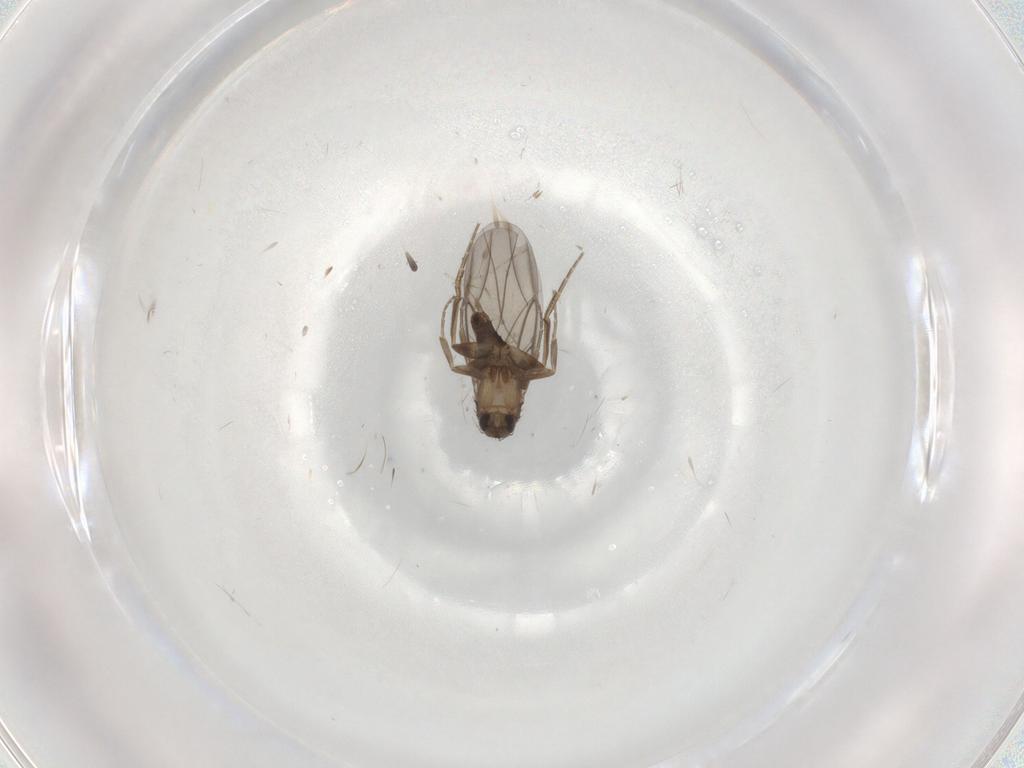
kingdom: Animalia
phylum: Arthropoda
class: Insecta
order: Diptera
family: Phoridae
